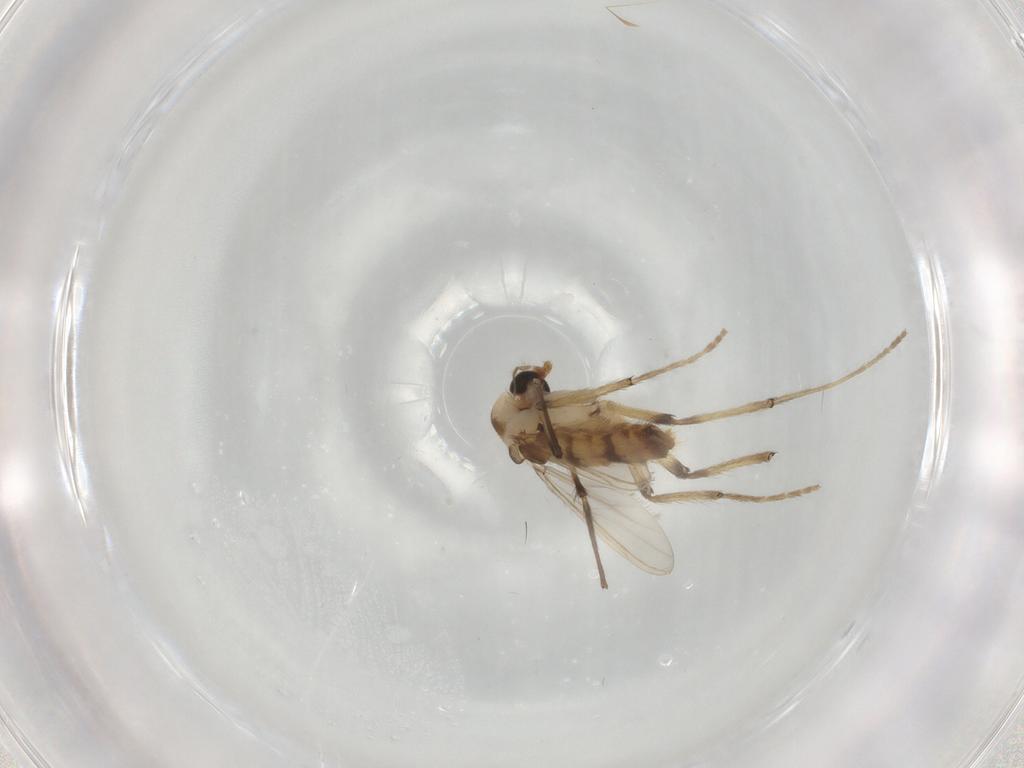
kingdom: Animalia
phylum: Arthropoda
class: Insecta
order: Diptera
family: Chironomidae
